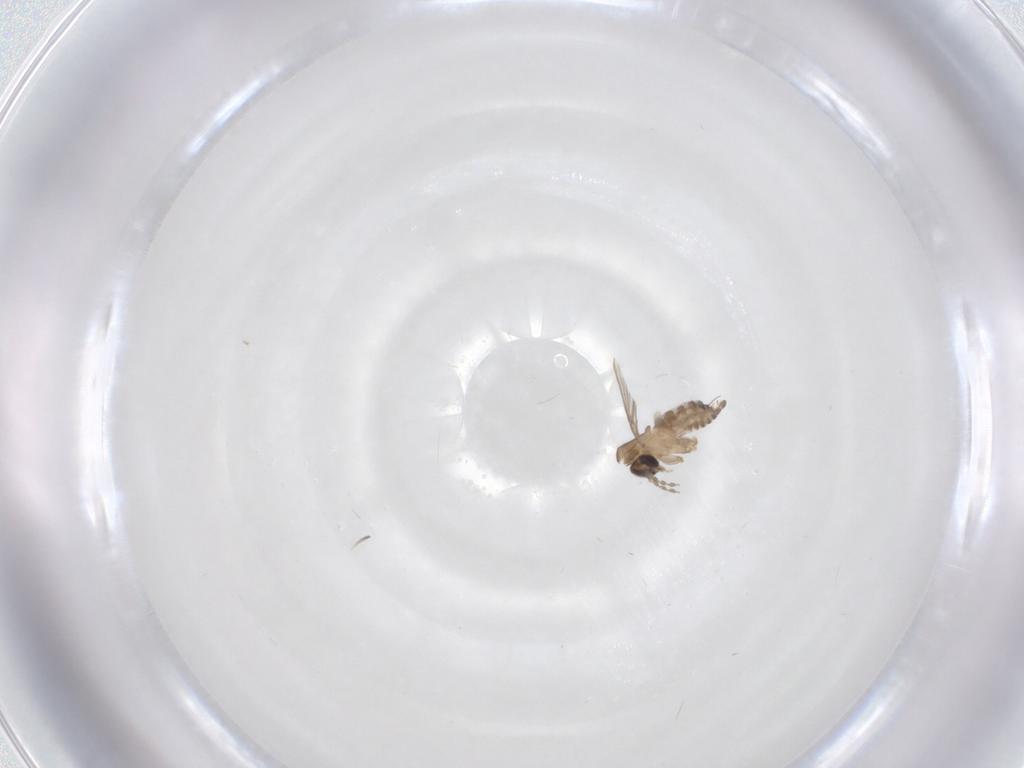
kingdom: Animalia
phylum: Arthropoda
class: Insecta
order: Diptera
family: Phoridae
